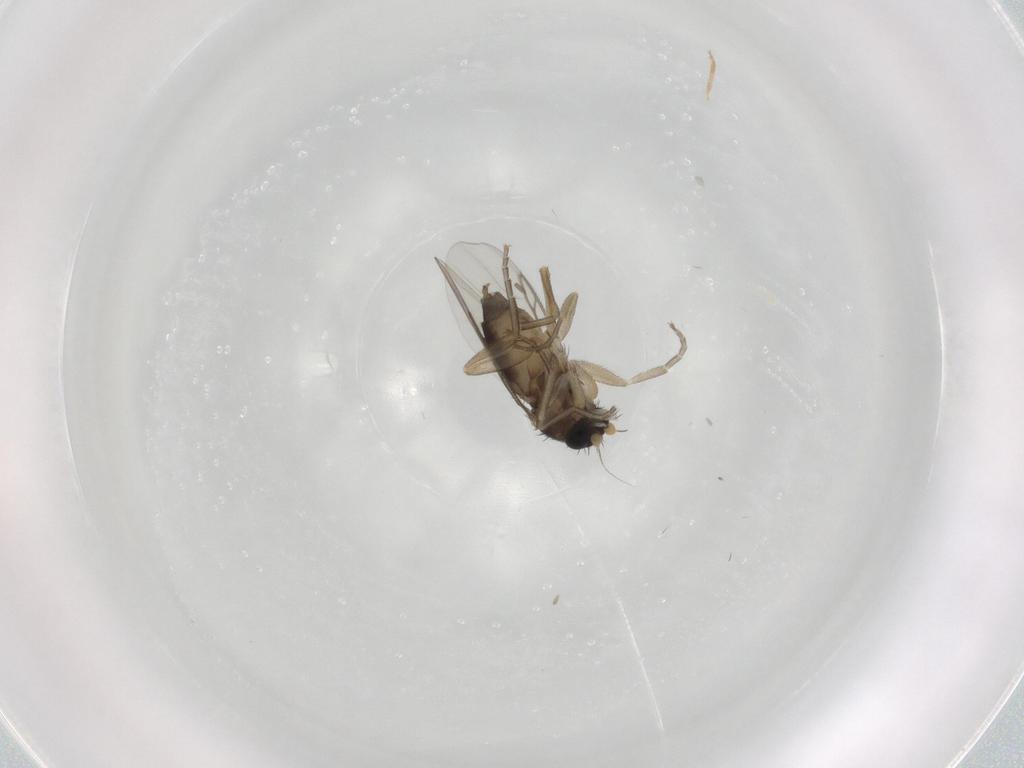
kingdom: Animalia
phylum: Arthropoda
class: Insecta
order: Diptera
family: Phoridae
